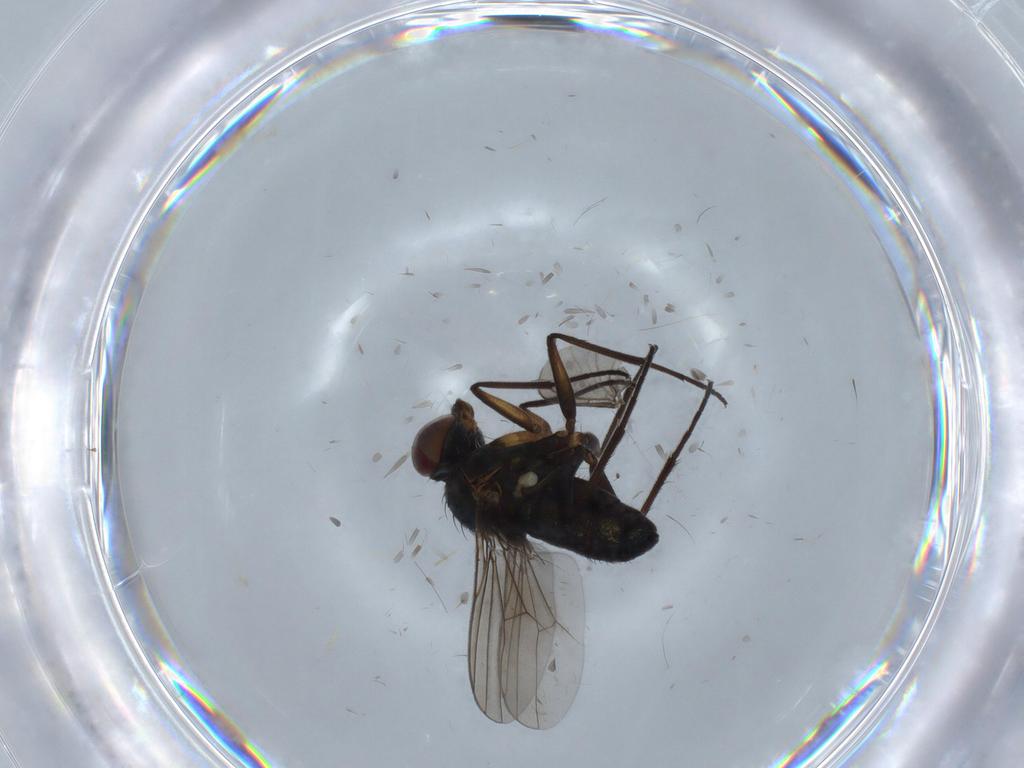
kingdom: Animalia
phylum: Arthropoda
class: Insecta
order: Diptera
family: Dolichopodidae
